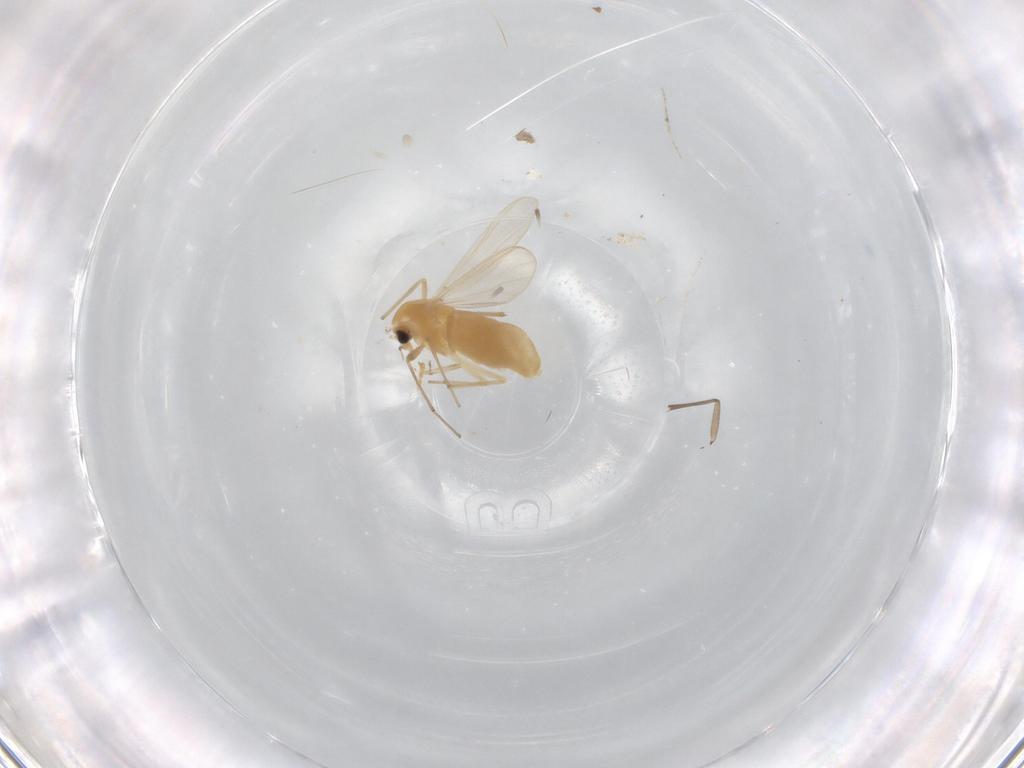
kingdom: Animalia
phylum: Arthropoda
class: Insecta
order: Diptera
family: Chironomidae
